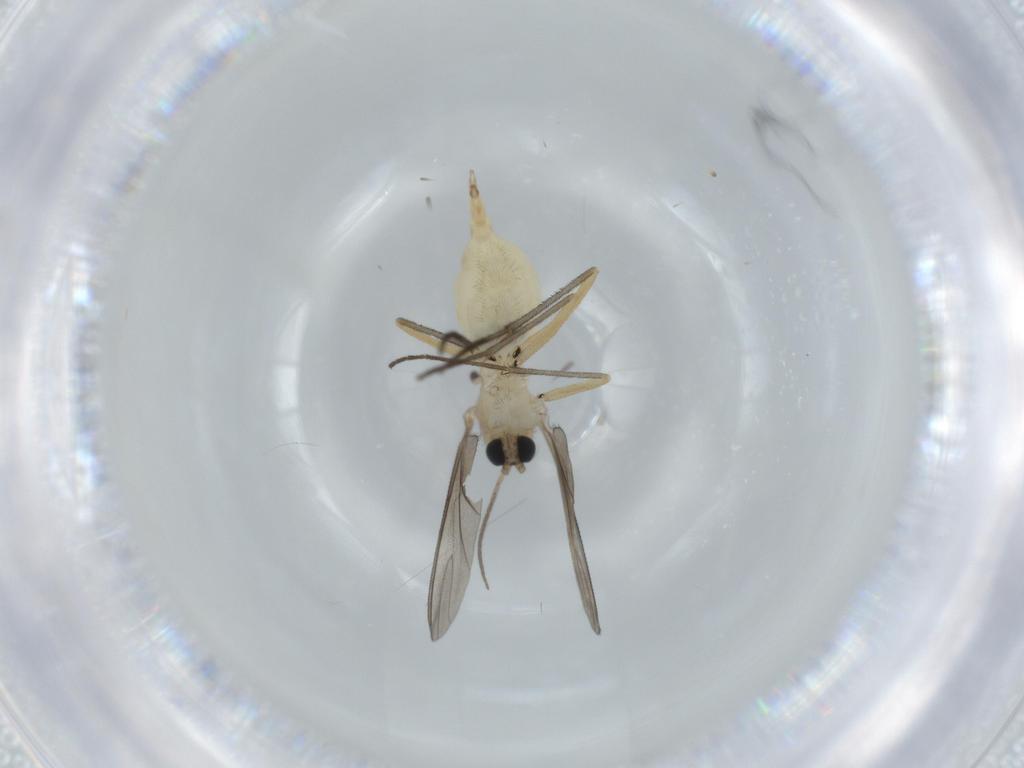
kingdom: Animalia
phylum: Arthropoda
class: Insecta
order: Diptera
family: Sciaridae
